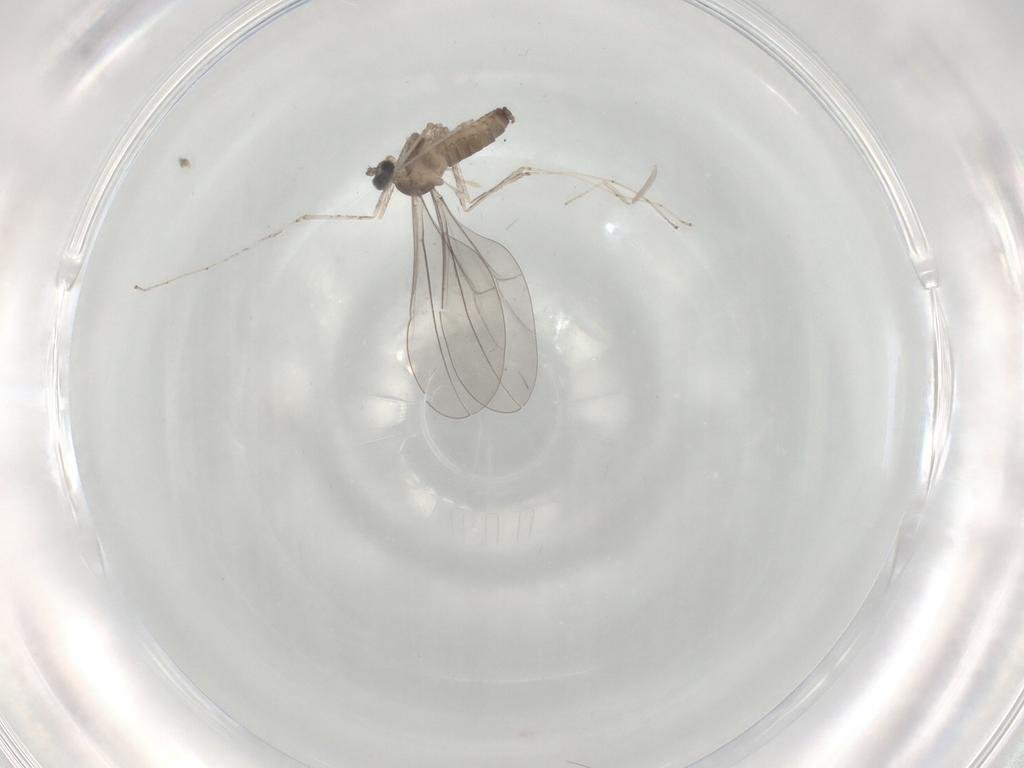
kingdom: Animalia
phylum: Arthropoda
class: Insecta
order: Diptera
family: Cecidomyiidae
